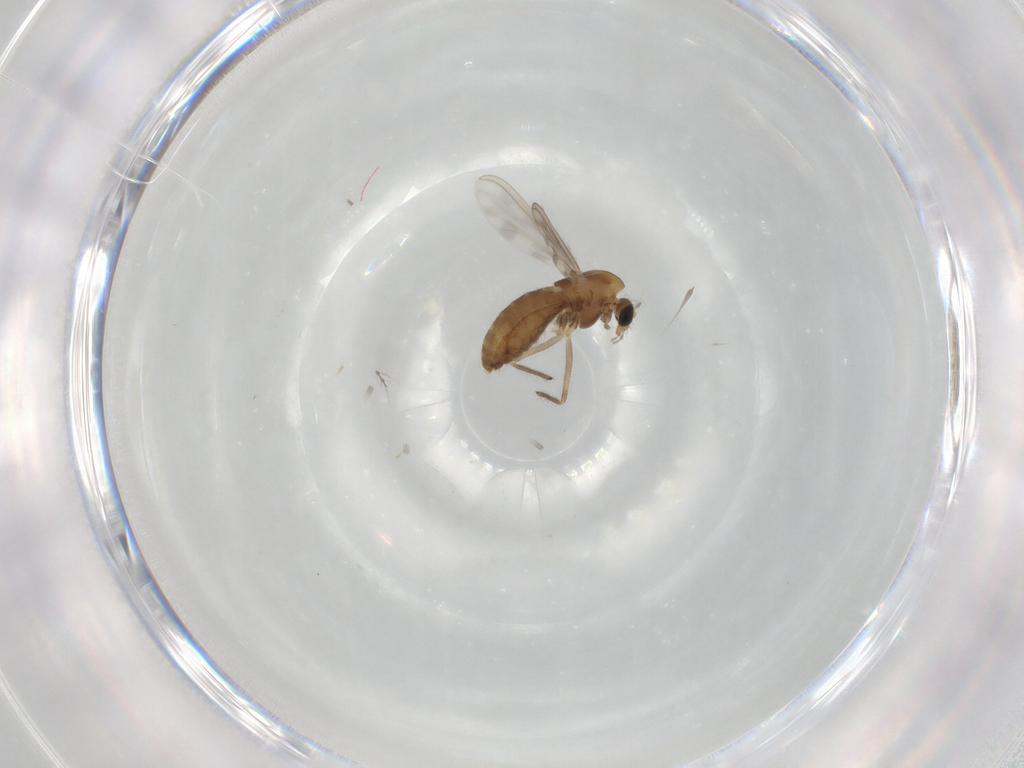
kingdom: Animalia
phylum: Arthropoda
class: Insecta
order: Diptera
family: Chironomidae
